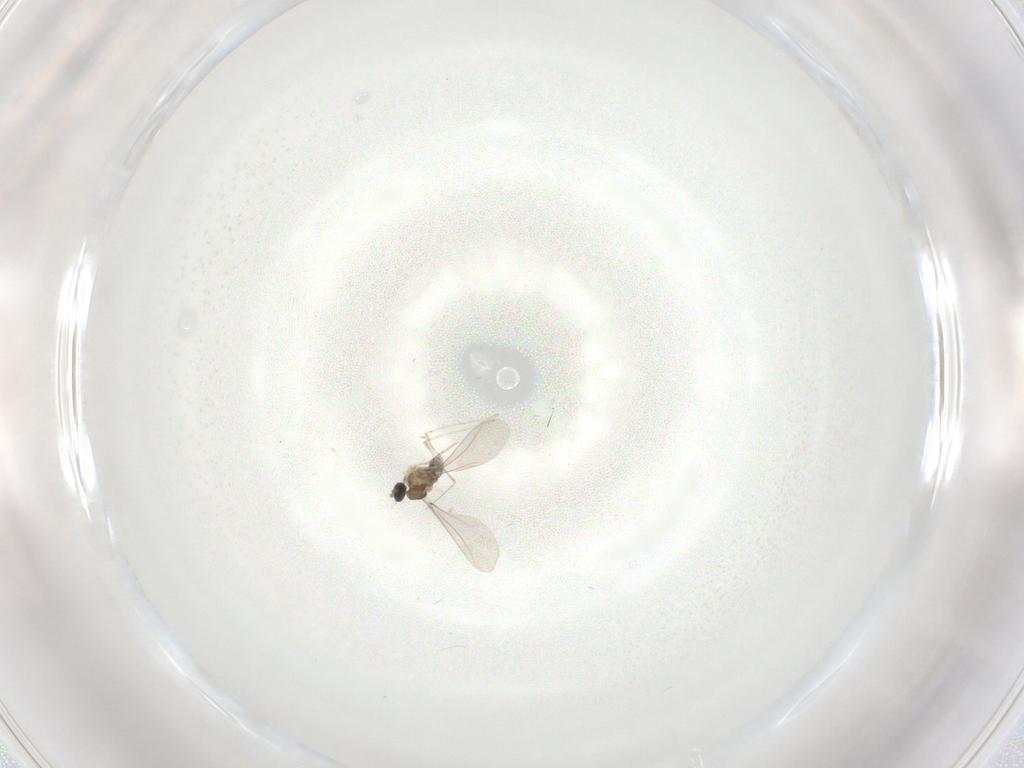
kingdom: Animalia
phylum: Arthropoda
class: Insecta
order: Diptera
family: Cecidomyiidae
